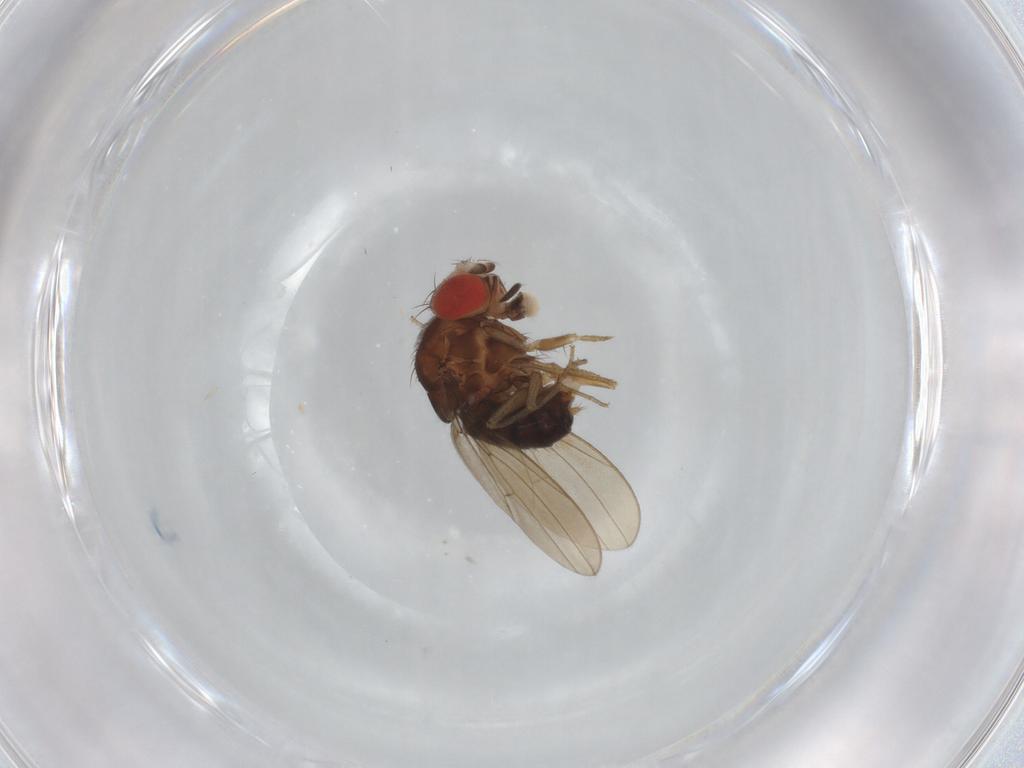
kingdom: Animalia
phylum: Arthropoda
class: Insecta
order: Diptera
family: Drosophilidae
